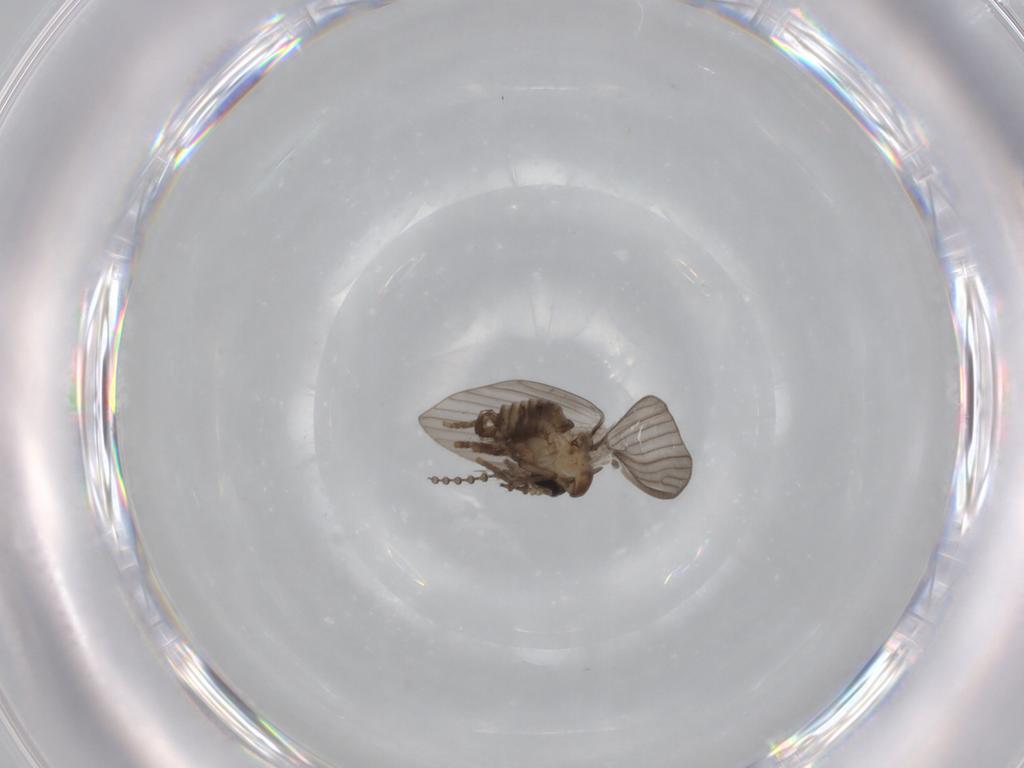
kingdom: Animalia
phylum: Arthropoda
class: Insecta
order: Diptera
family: Psychodidae
